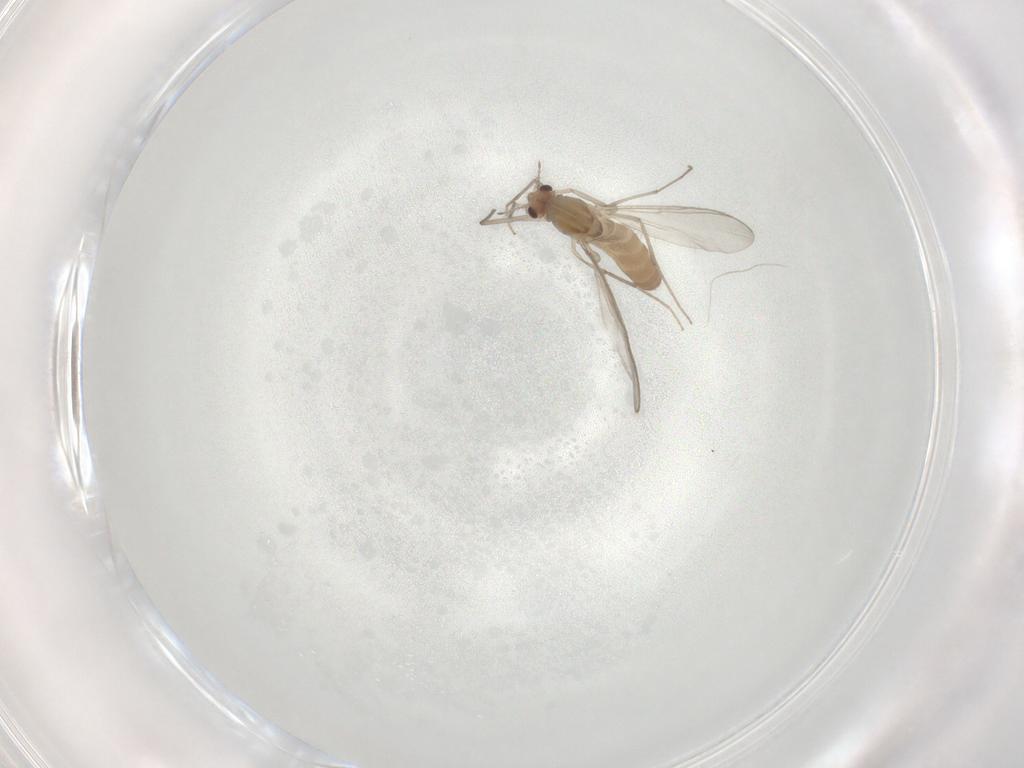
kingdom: Animalia
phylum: Arthropoda
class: Insecta
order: Diptera
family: Chironomidae
